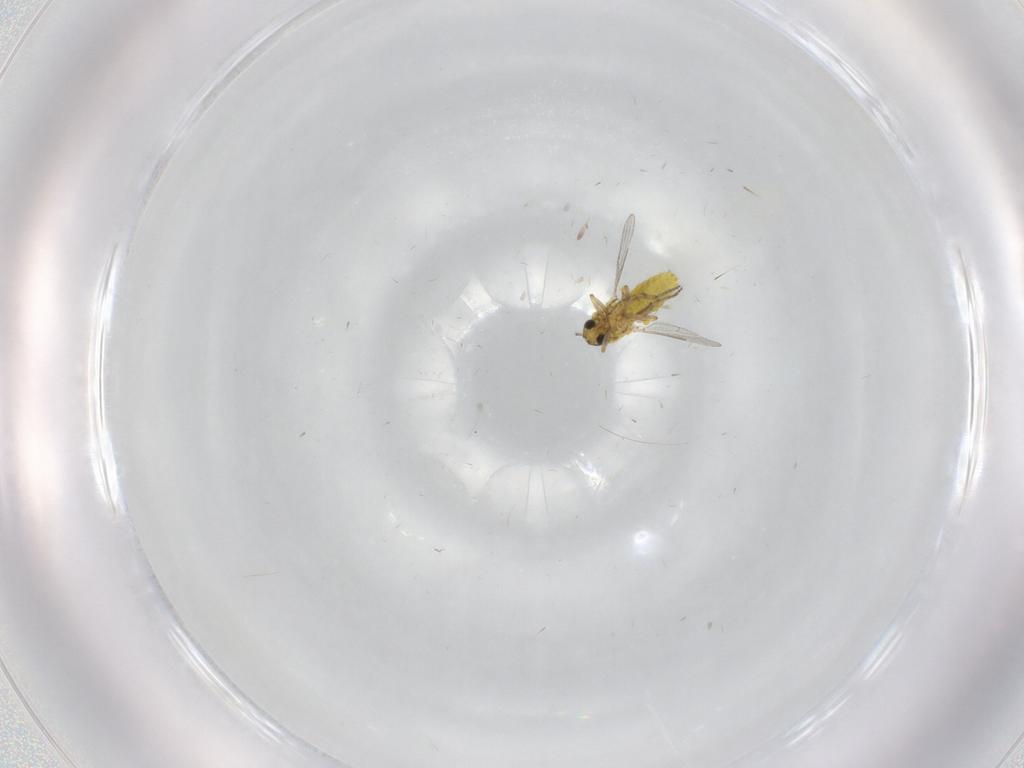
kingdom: Animalia
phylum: Arthropoda
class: Insecta
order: Diptera
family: Ceratopogonidae
